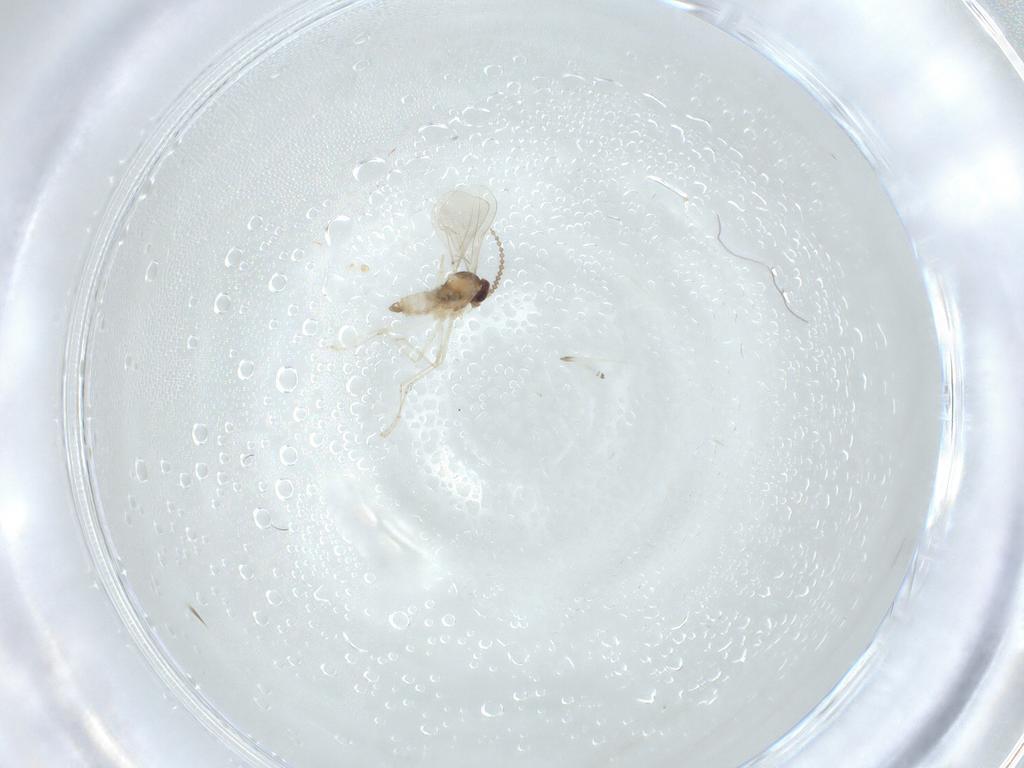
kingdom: Animalia
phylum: Arthropoda
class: Insecta
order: Diptera
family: Cecidomyiidae
